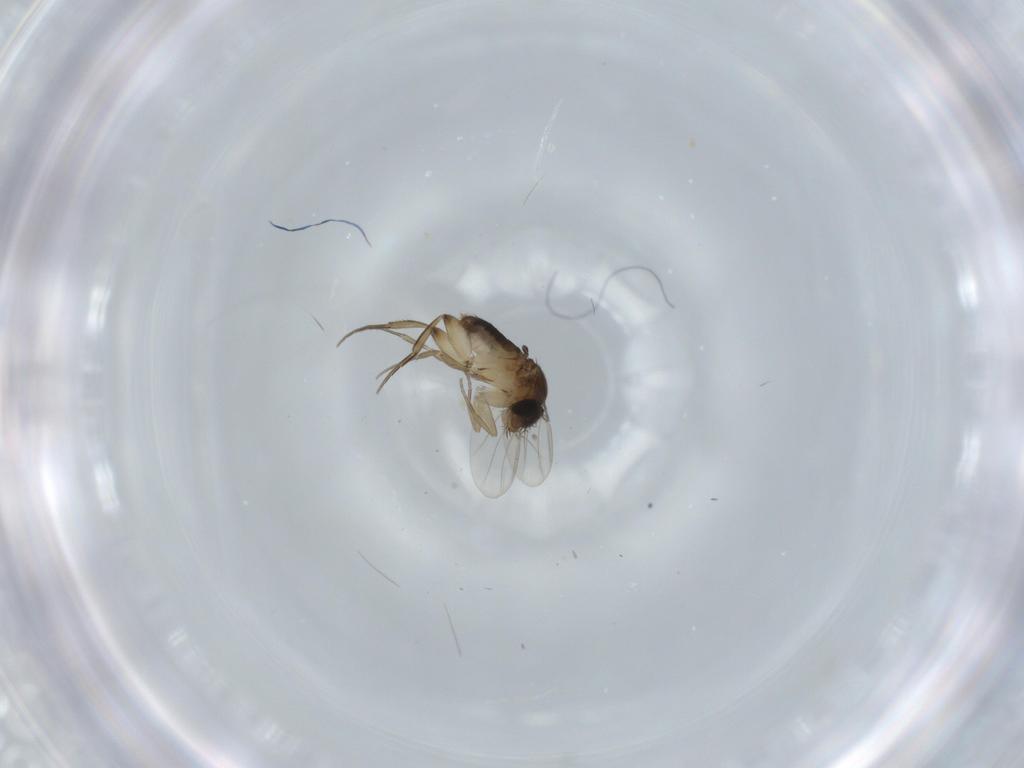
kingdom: Animalia
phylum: Arthropoda
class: Insecta
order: Diptera
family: Phoridae
